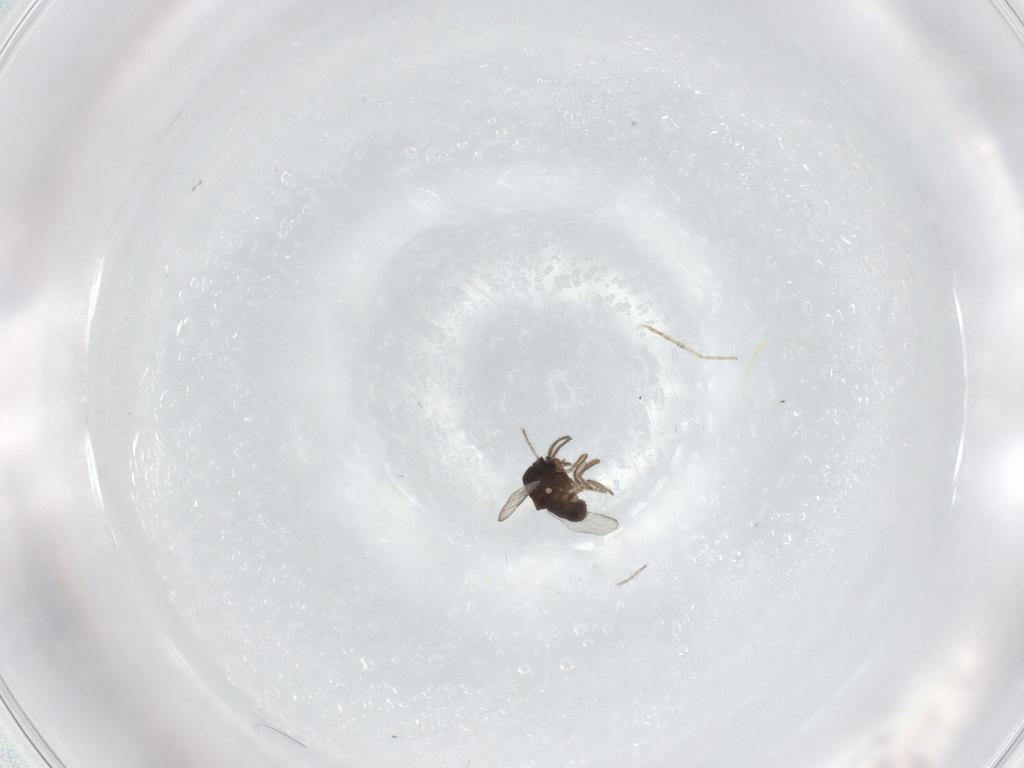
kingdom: Animalia
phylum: Arthropoda
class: Insecta
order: Diptera
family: Ceratopogonidae
